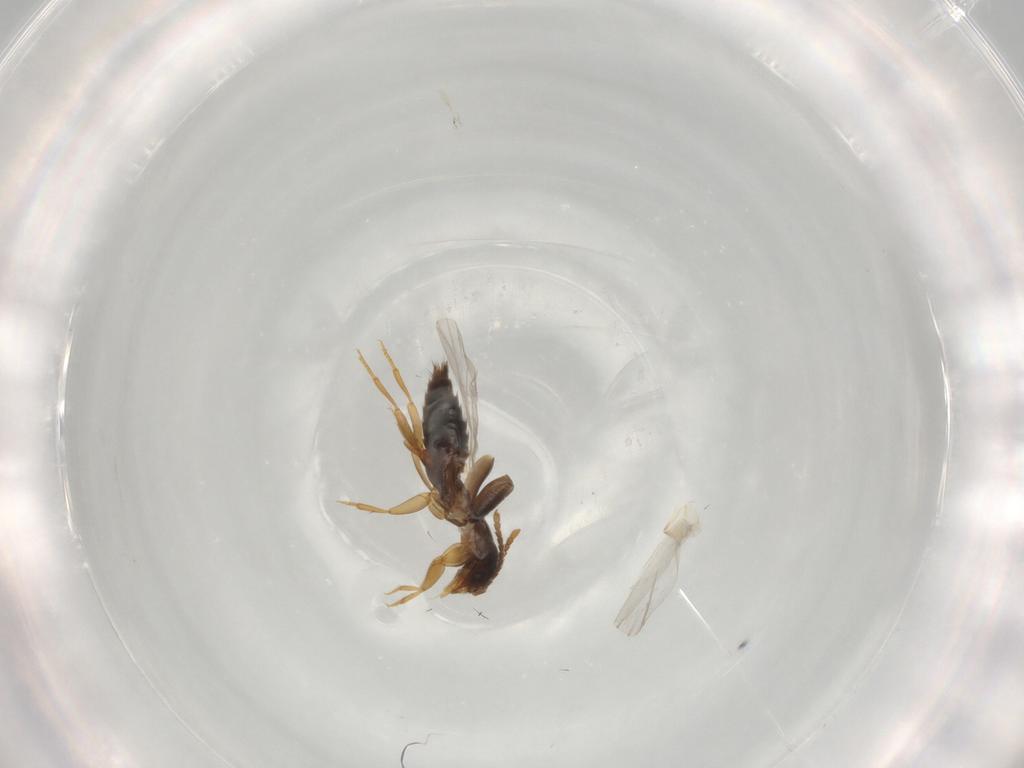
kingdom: Animalia
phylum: Arthropoda
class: Insecta
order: Coleoptera
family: Staphylinidae
